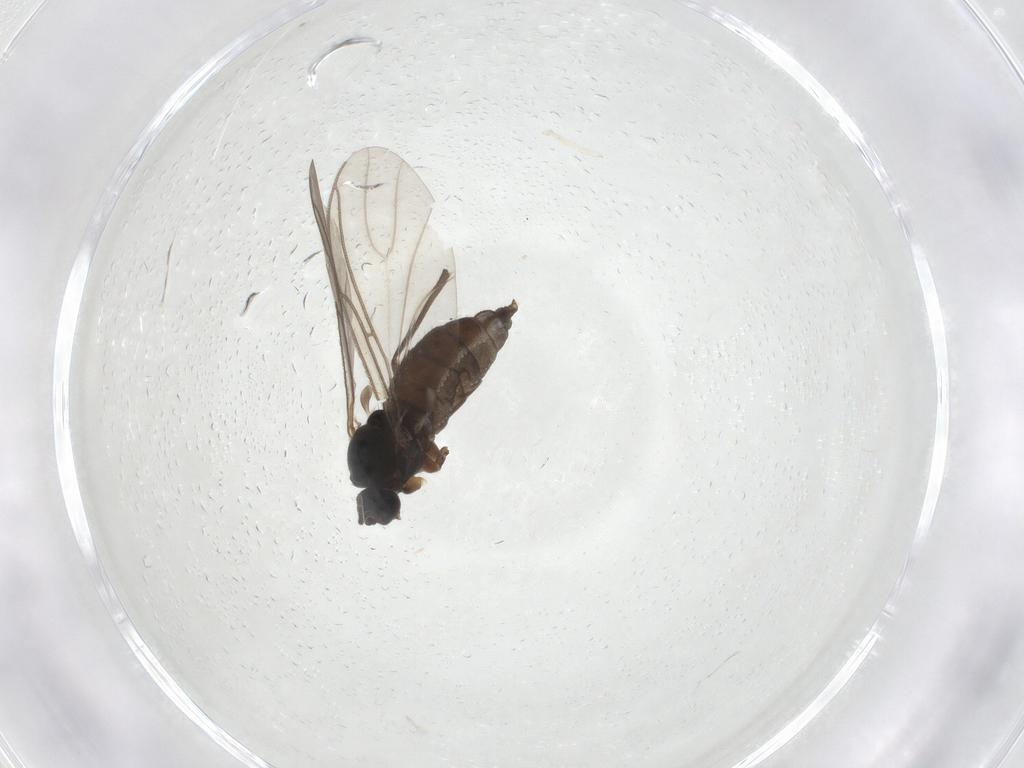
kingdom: Animalia
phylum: Arthropoda
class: Insecta
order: Diptera
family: Sciaridae
